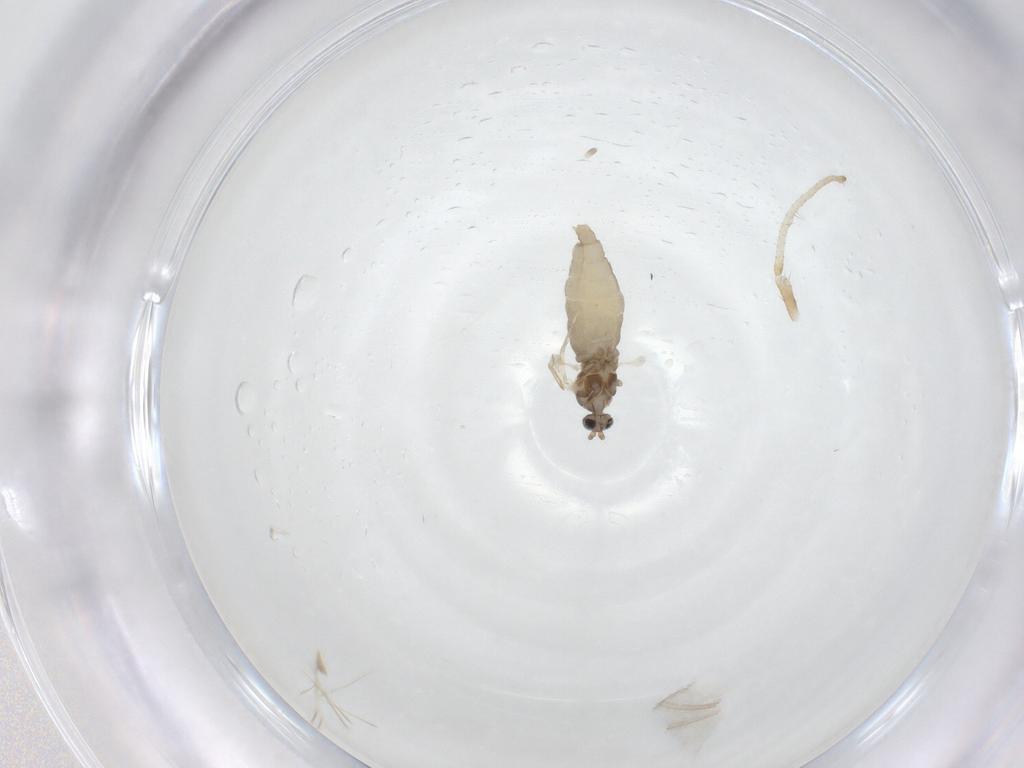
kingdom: Animalia
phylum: Arthropoda
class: Insecta
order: Diptera
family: Cecidomyiidae
